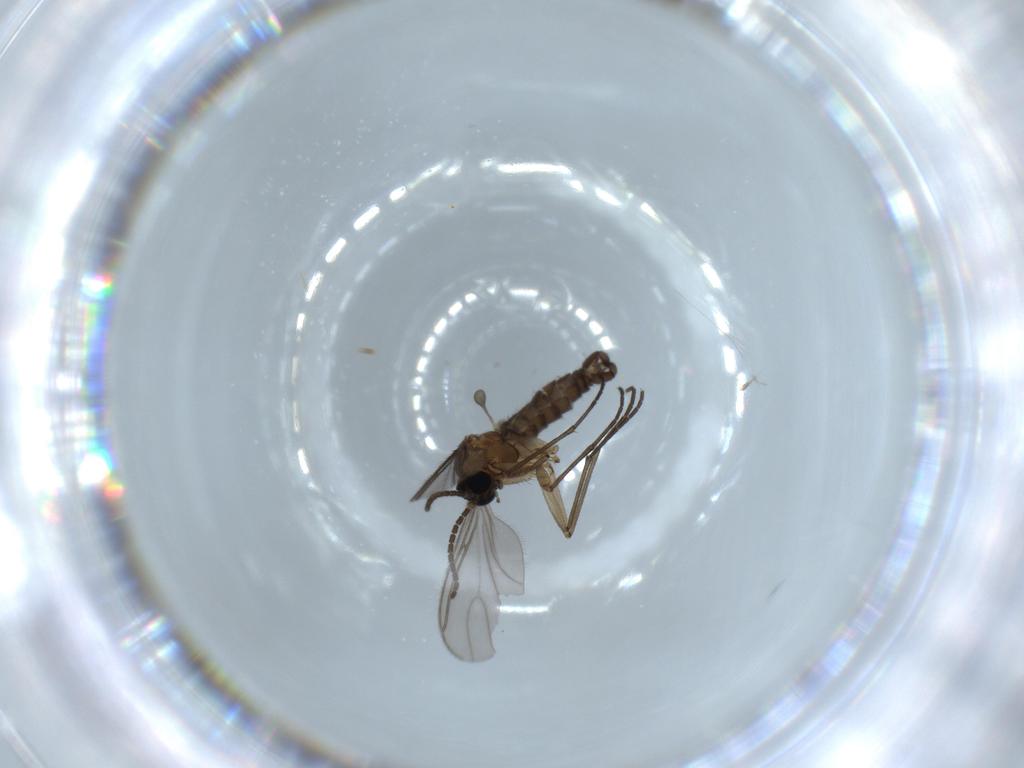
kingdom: Animalia
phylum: Arthropoda
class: Insecta
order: Diptera
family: Sciaridae
